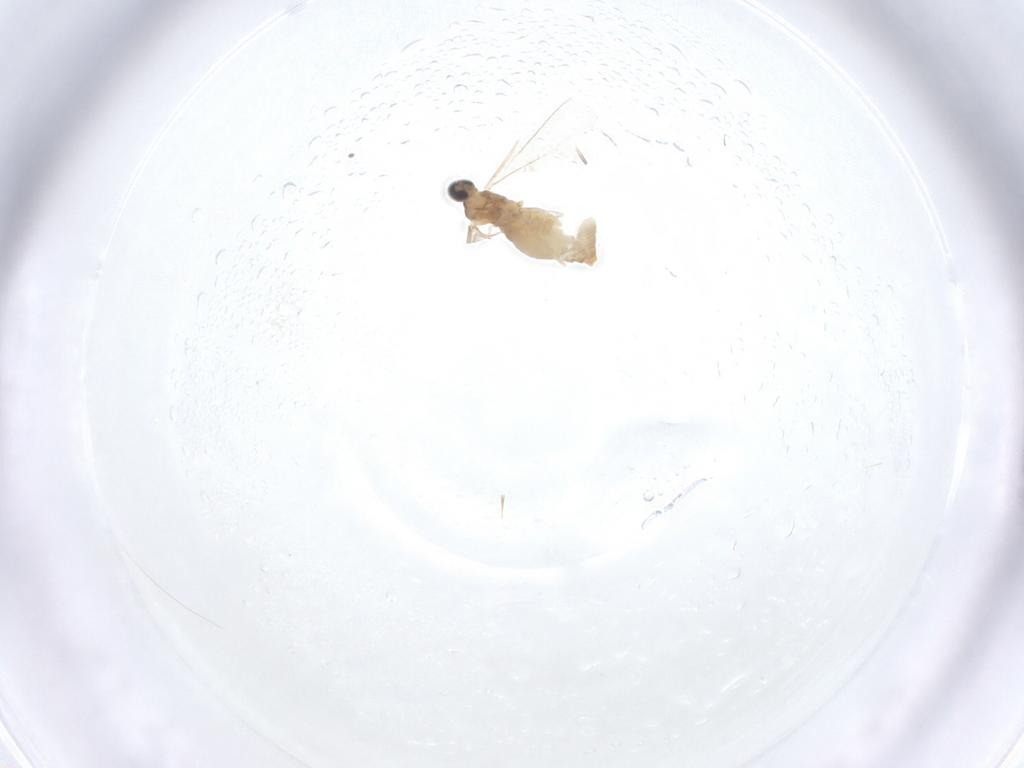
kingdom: Animalia
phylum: Arthropoda
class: Insecta
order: Diptera
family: Cecidomyiidae
